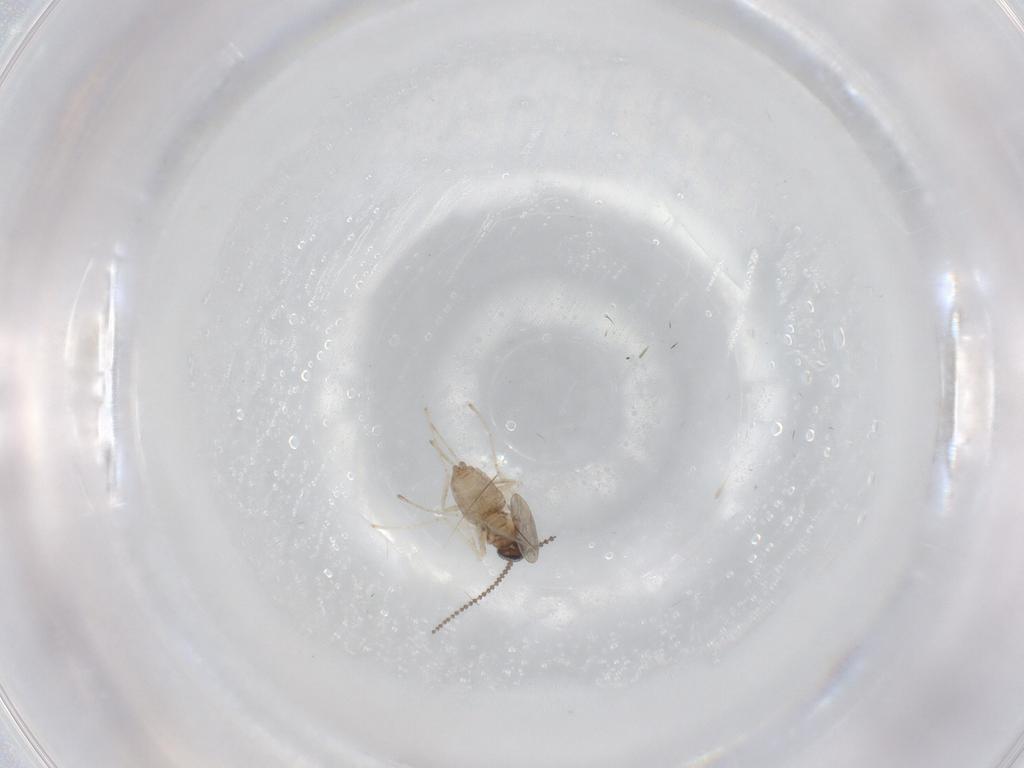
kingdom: Animalia
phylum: Arthropoda
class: Insecta
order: Diptera
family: Cecidomyiidae
